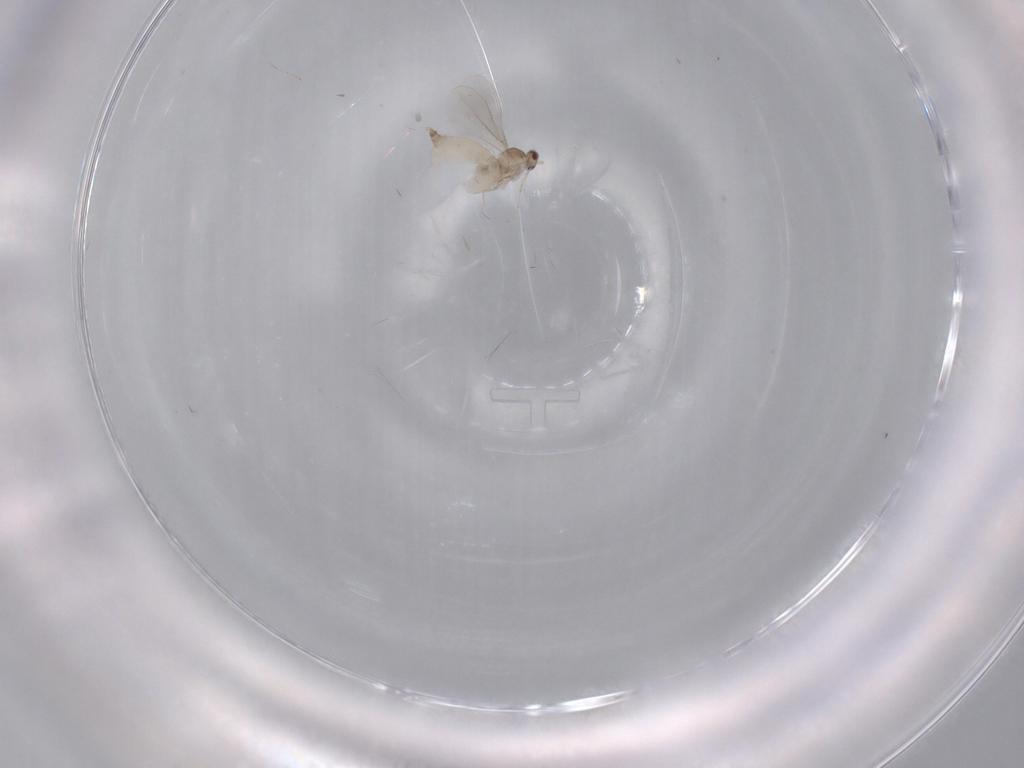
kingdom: Animalia
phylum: Arthropoda
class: Insecta
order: Diptera
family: Cecidomyiidae
